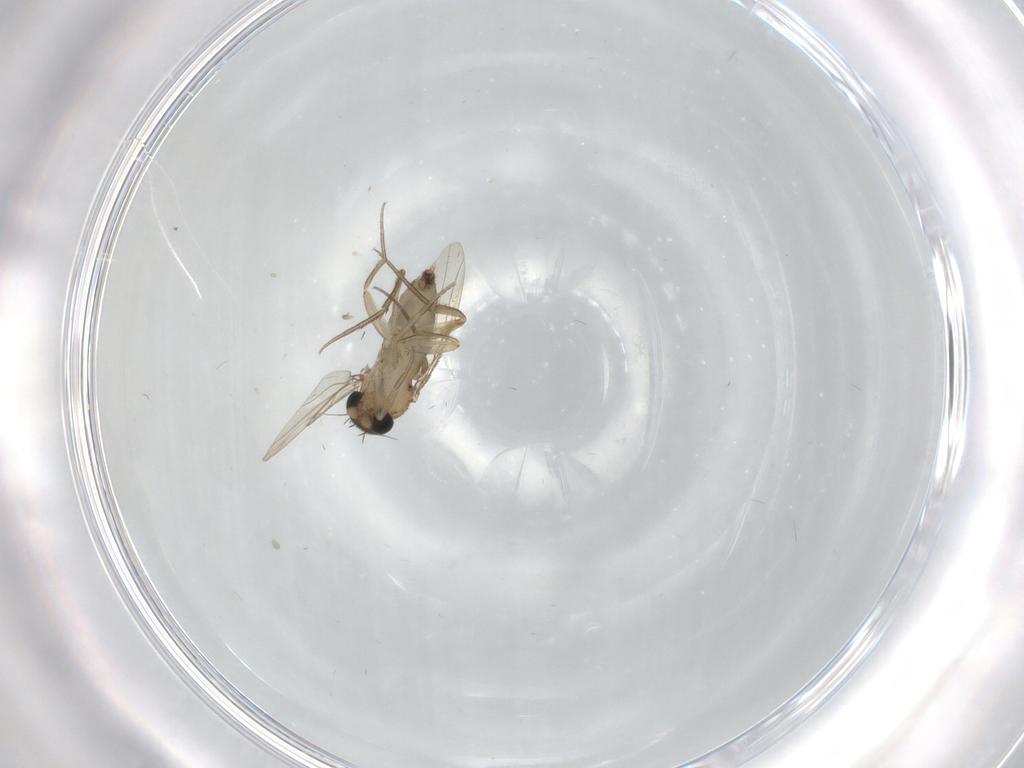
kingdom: Animalia
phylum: Arthropoda
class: Insecta
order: Diptera
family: Phoridae
